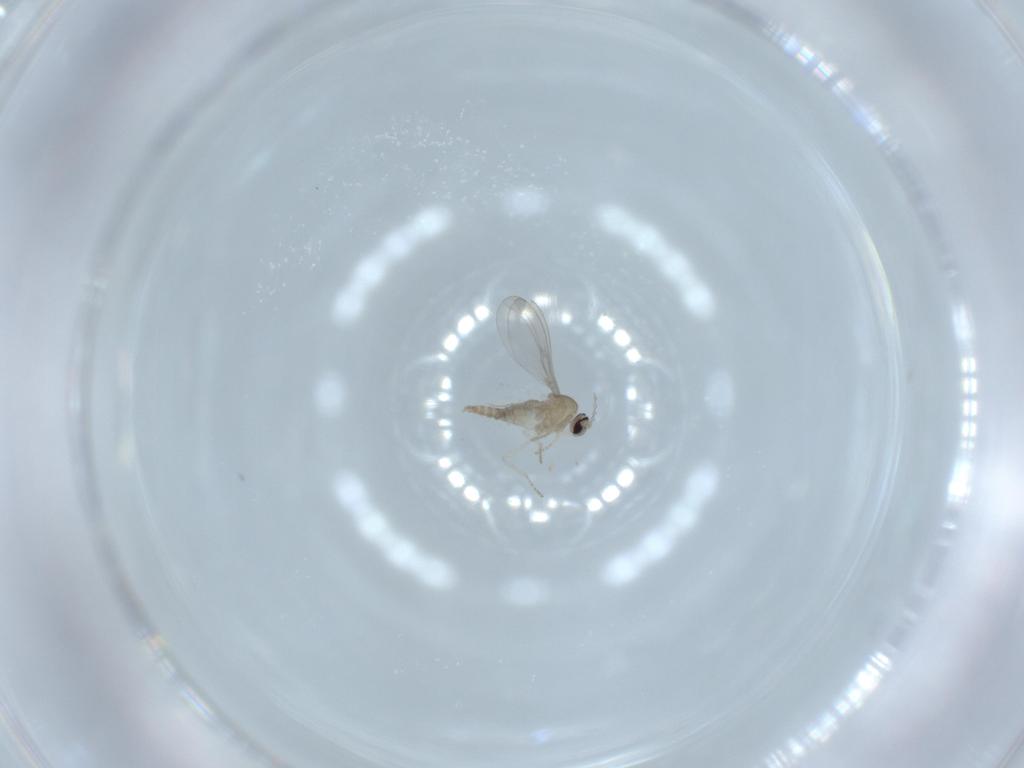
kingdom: Animalia
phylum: Arthropoda
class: Insecta
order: Diptera
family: Cecidomyiidae
